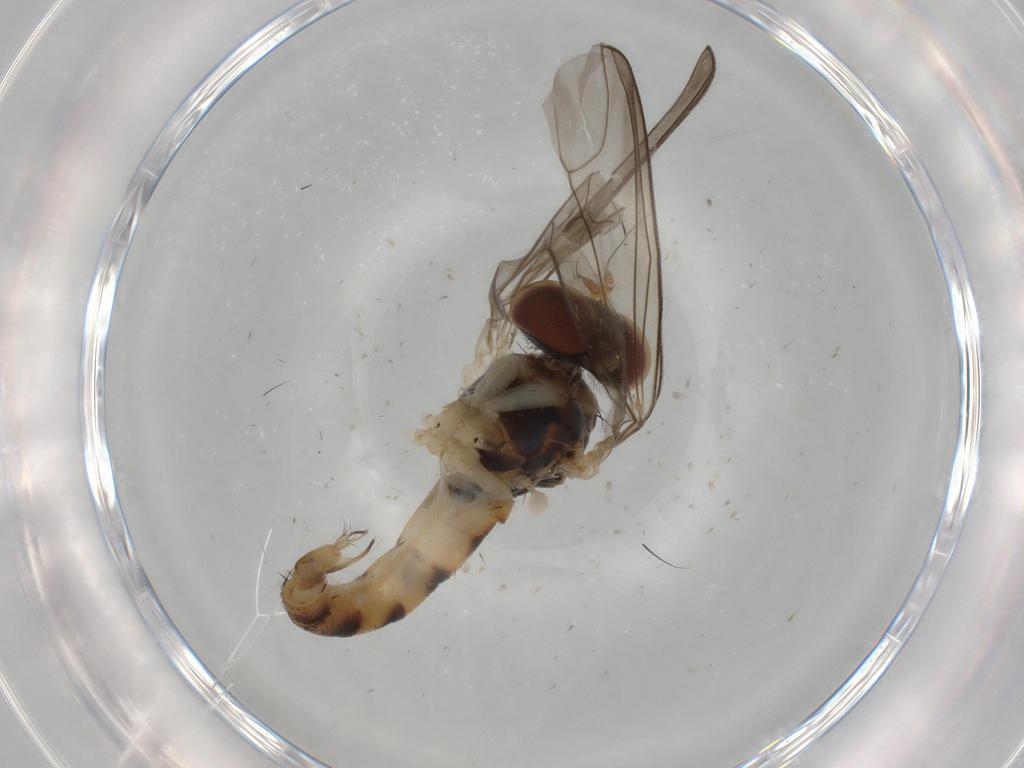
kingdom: Animalia
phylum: Arthropoda
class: Insecta
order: Diptera
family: Dolichopodidae
